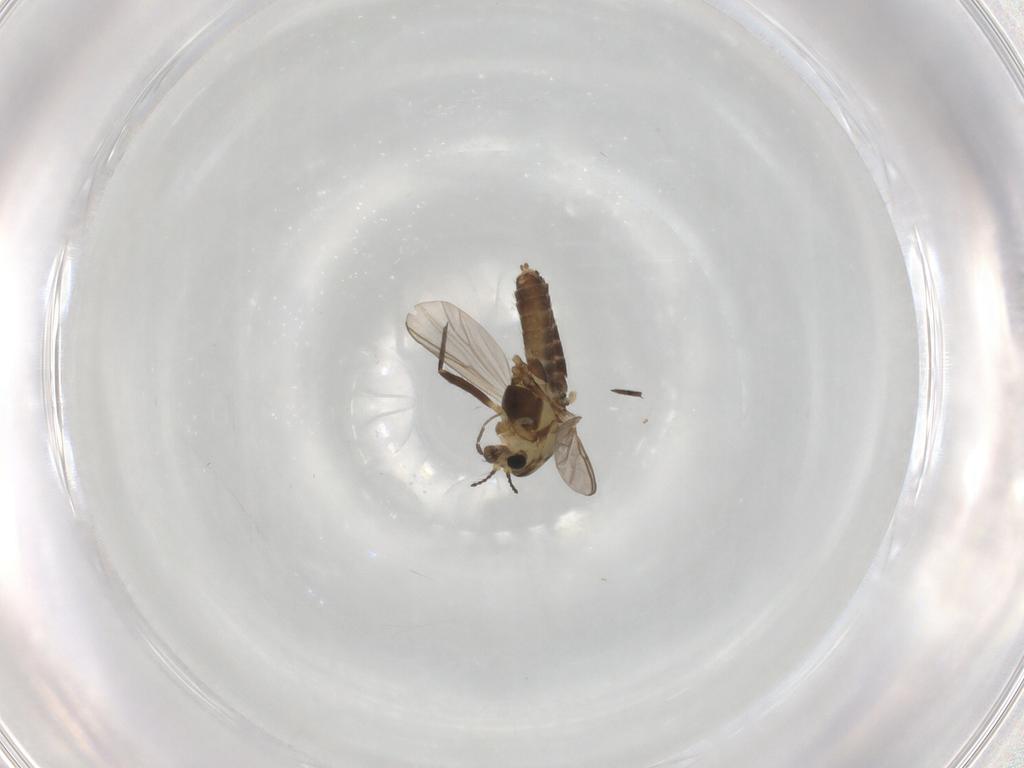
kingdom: Animalia
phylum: Arthropoda
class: Insecta
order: Diptera
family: Chironomidae
